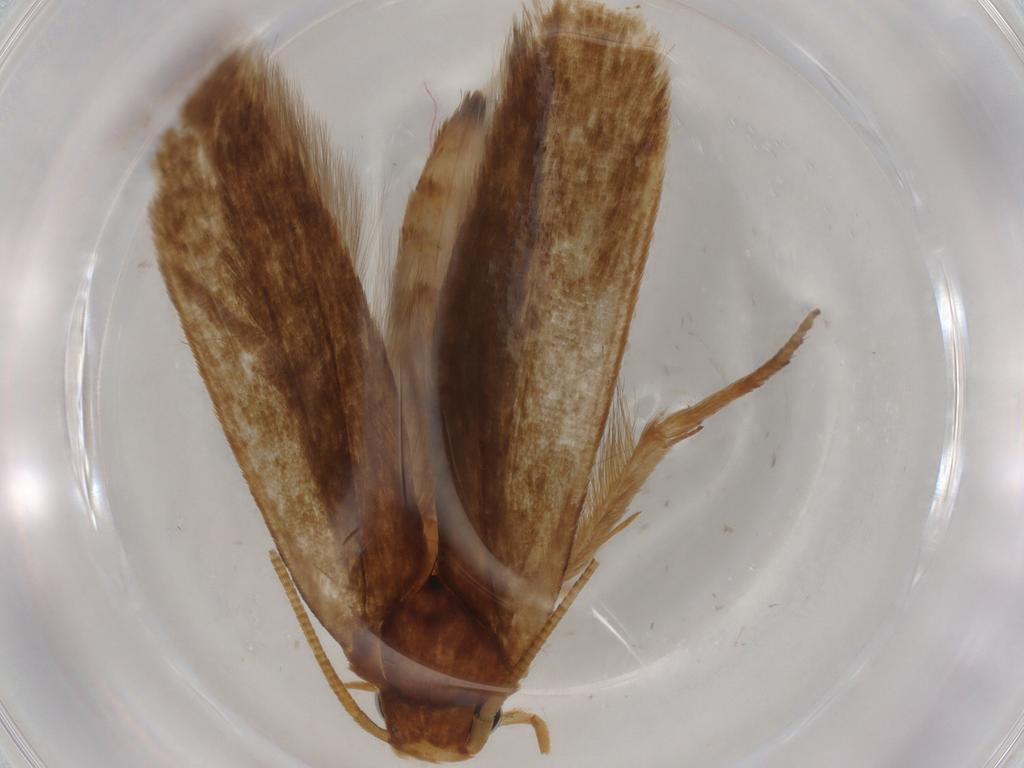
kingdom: Animalia
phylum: Arthropoda
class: Insecta
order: Lepidoptera
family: Tineidae
